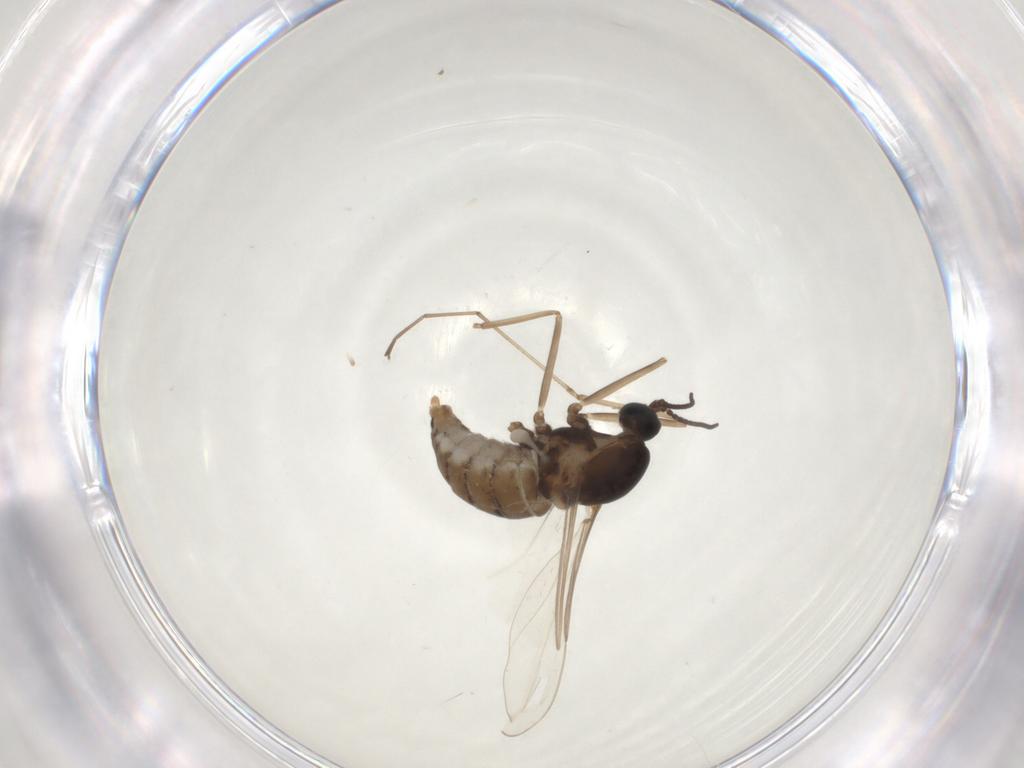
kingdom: Animalia
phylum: Arthropoda
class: Insecta
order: Diptera
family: Cecidomyiidae
